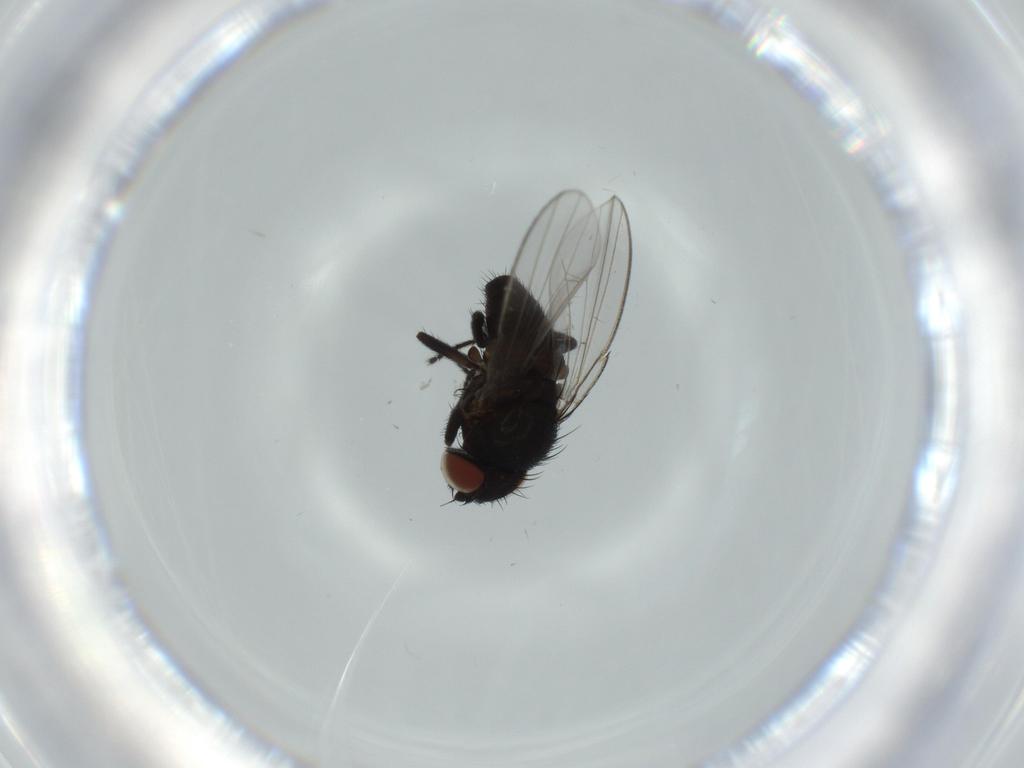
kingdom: Animalia
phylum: Arthropoda
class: Insecta
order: Diptera
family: Milichiidae
